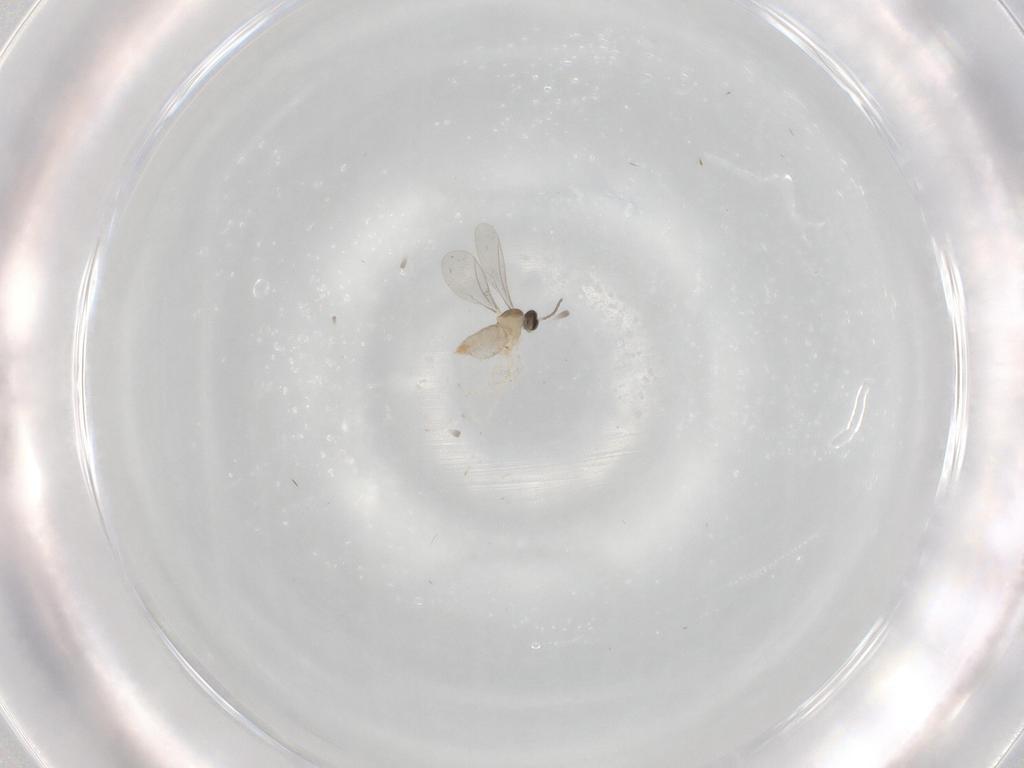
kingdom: Animalia
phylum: Arthropoda
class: Insecta
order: Diptera
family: Cecidomyiidae
